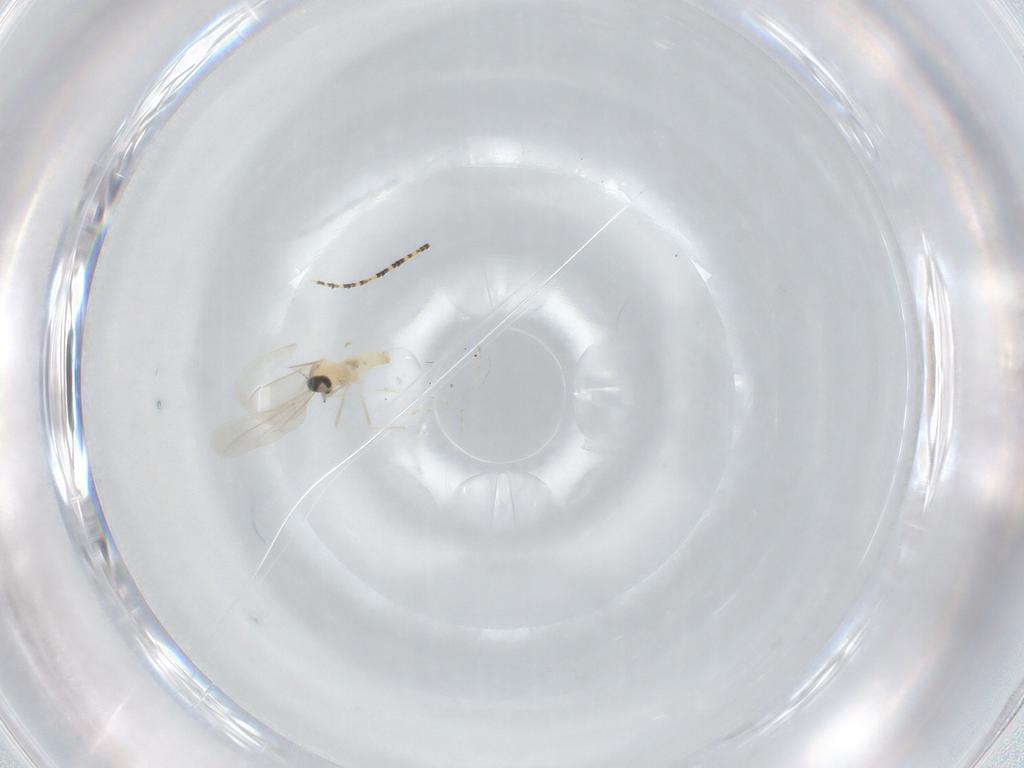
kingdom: Animalia
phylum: Arthropoda
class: Insecta
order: Diptera
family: Cecidomyiidae
